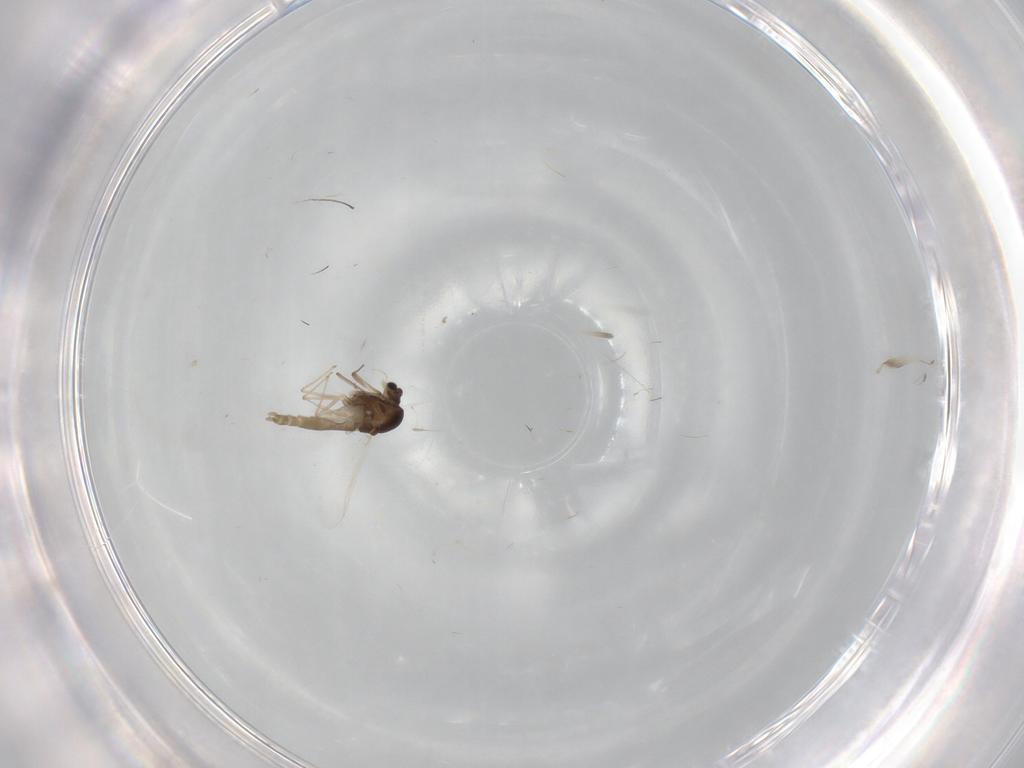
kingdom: Animalia
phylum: Arthropoda
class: Insecta
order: Diptera
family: Chironomidae
